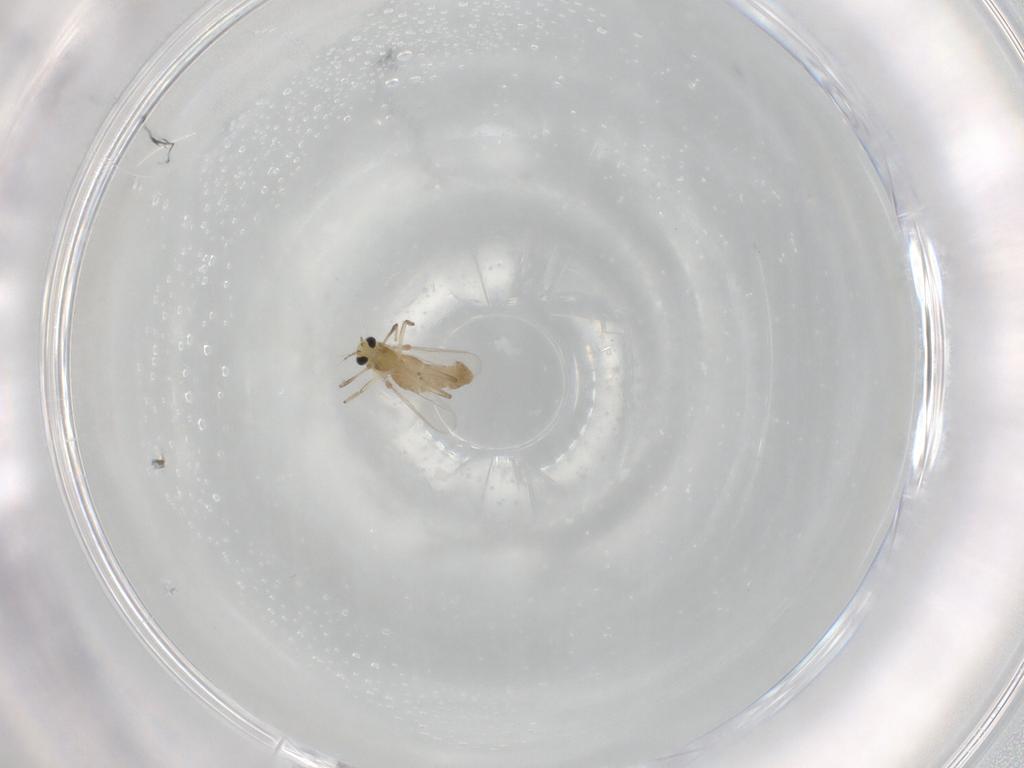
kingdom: Animalia
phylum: Arthropoda
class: Insecta
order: Diptera
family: Chironomidae
